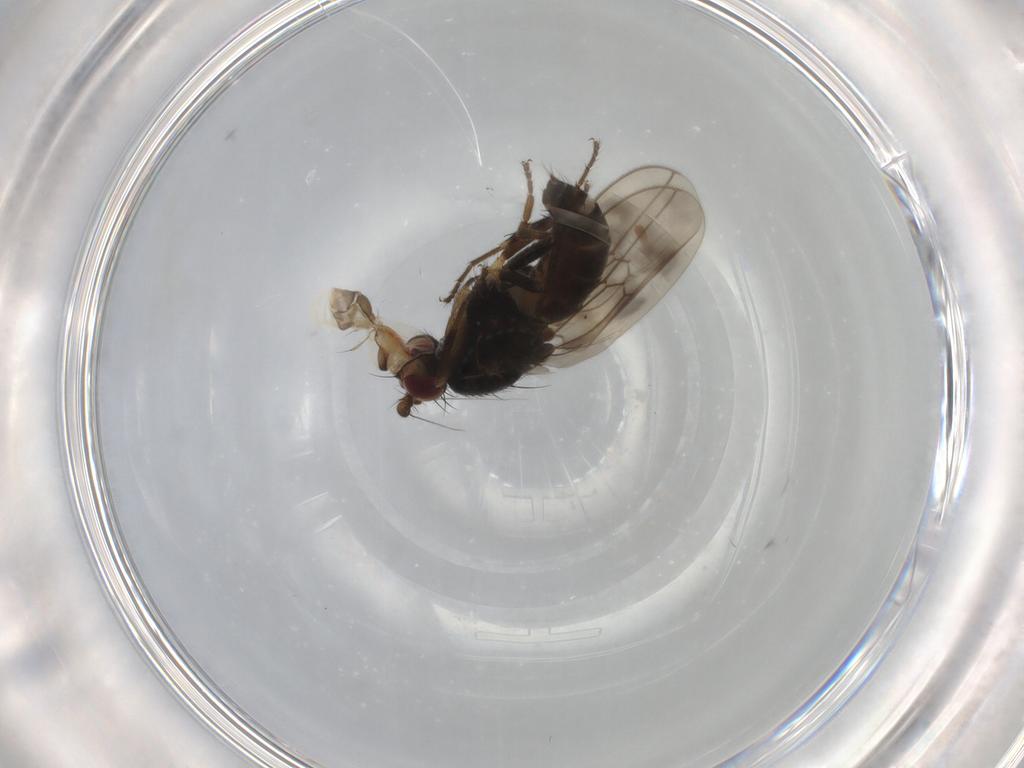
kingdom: Animalia
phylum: Arthropoda
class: Insecta
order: Diptera
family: Sphaeroceridae
